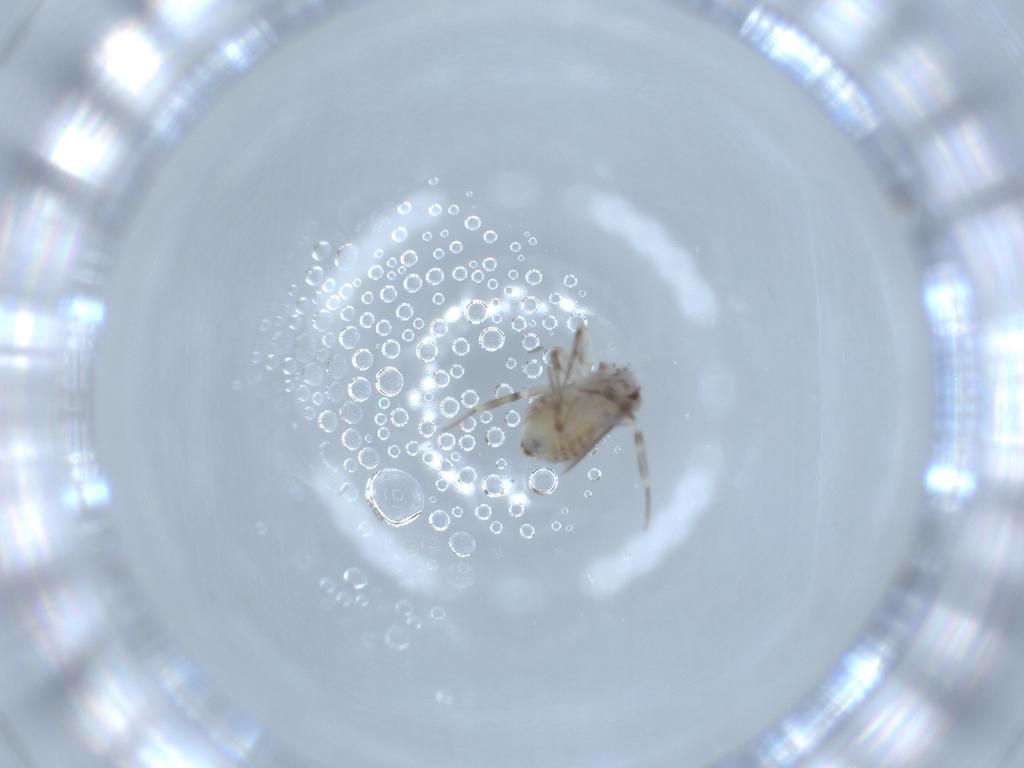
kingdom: Animalia
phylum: Arthropoda
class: Insecta
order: Psocodea
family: Lepidopsocidae
